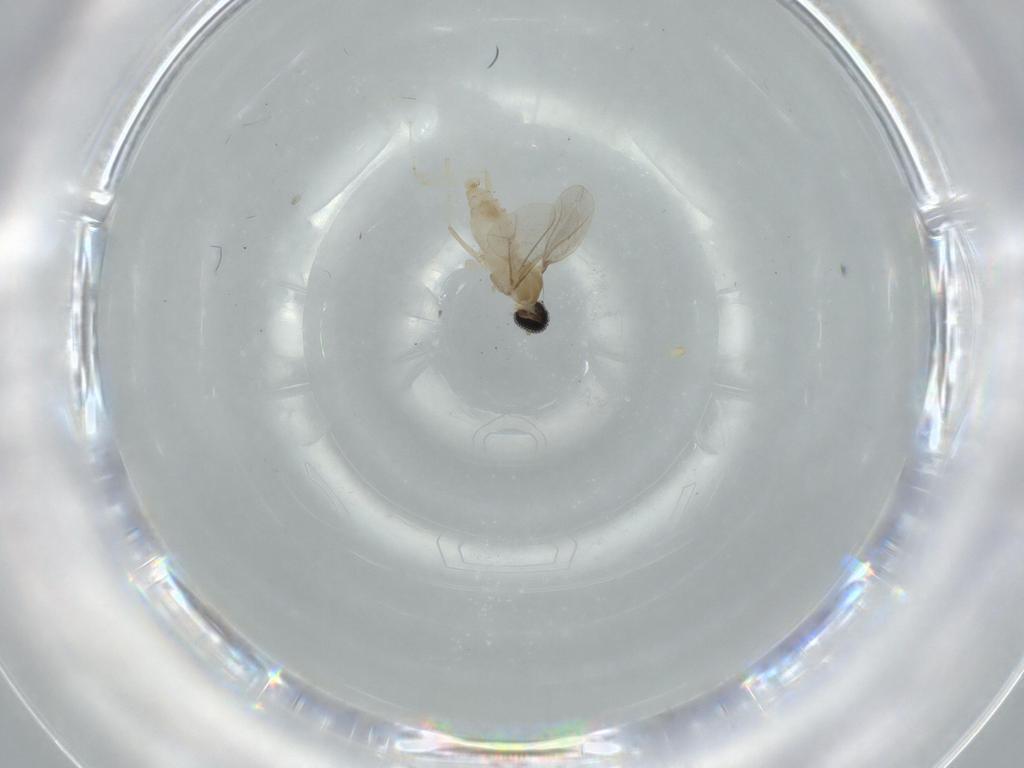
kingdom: Animalia
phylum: Arthropoda
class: Insecta
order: Diptera
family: Cecidomyiidae
